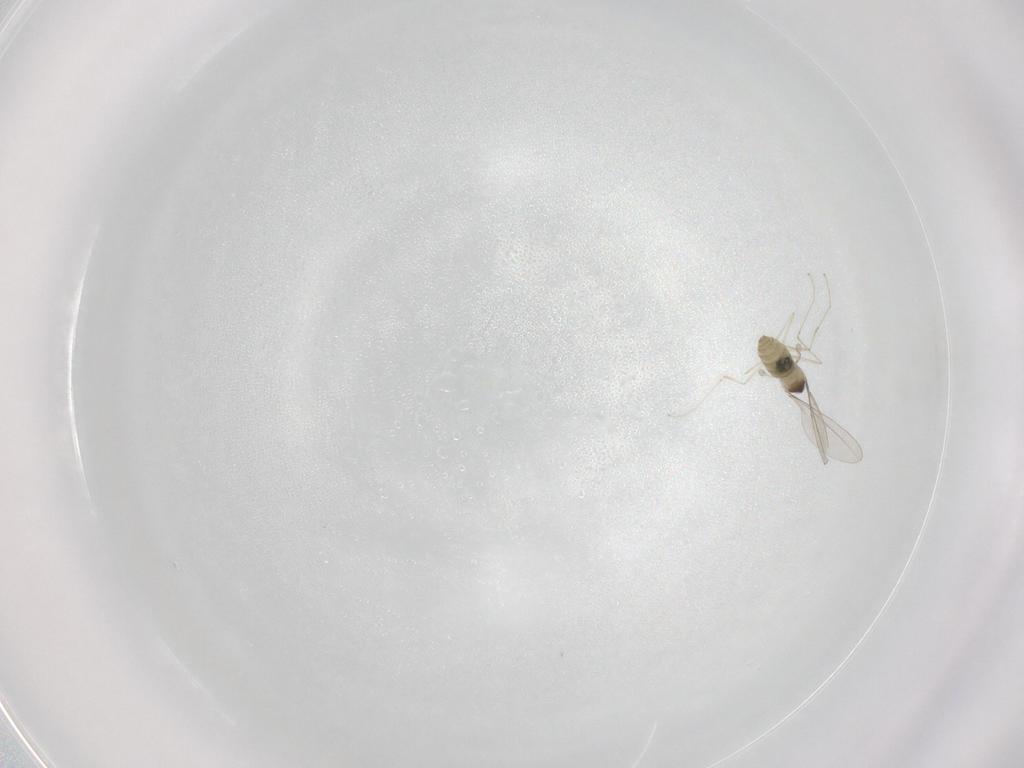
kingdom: Animalia
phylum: Arthropoda
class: Insecta
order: Diptera
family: Cecidomyiidae
